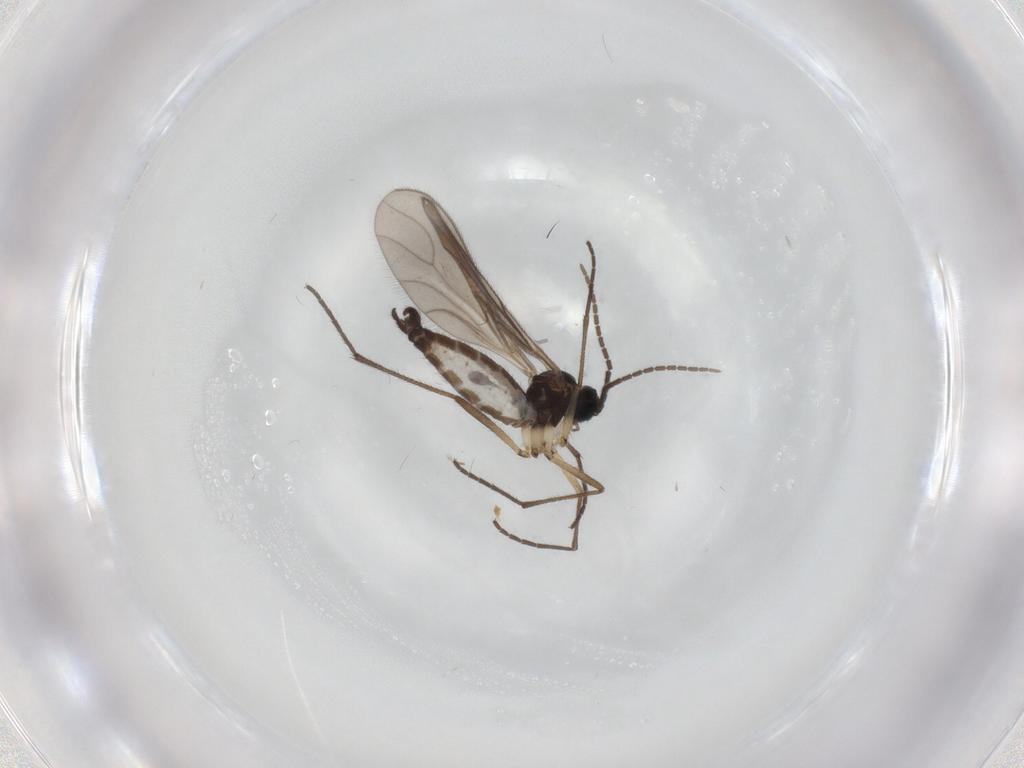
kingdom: Animalia
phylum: Arthropoda
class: Insecta
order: Diptera
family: Sciaridae
